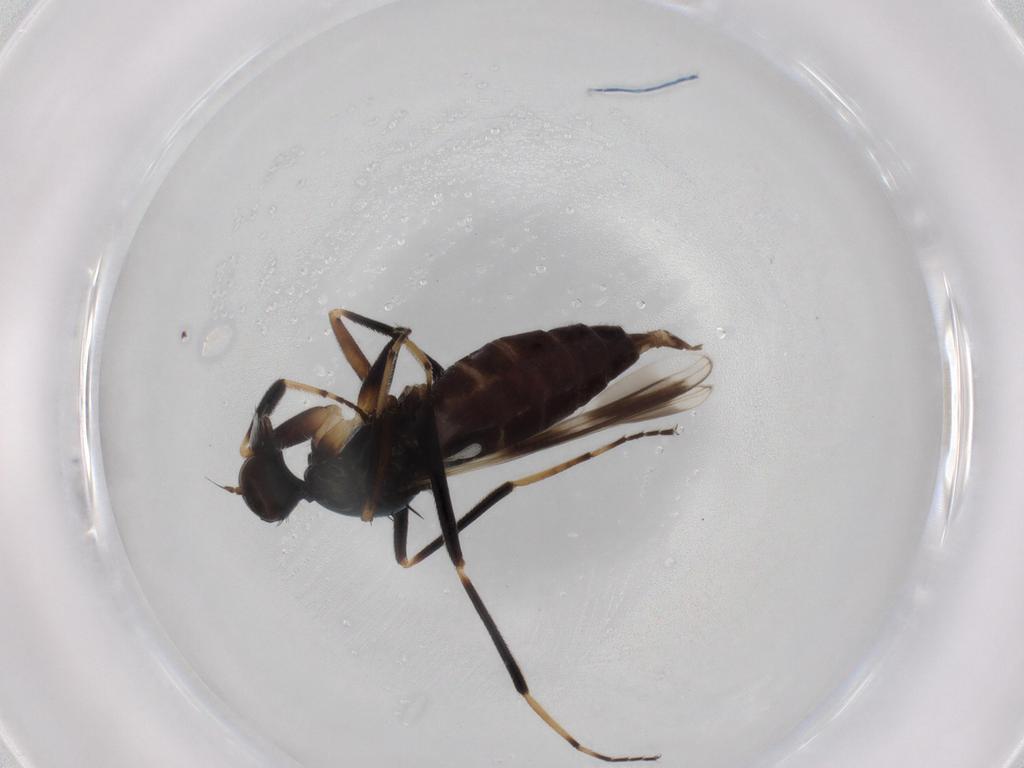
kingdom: Animalia
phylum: Arthropoda
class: Insecta
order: Diptera
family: Hybotidae
